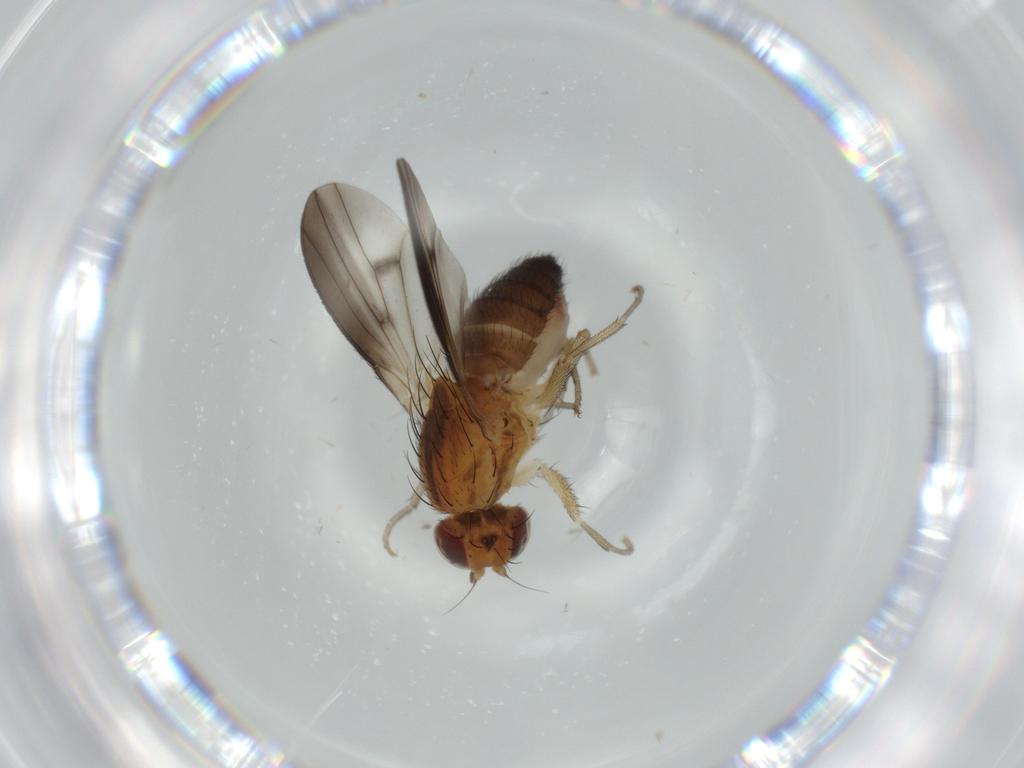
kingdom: Animalia
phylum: Arthropoda
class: Insecta
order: Diptera
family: Heleomyzidae
